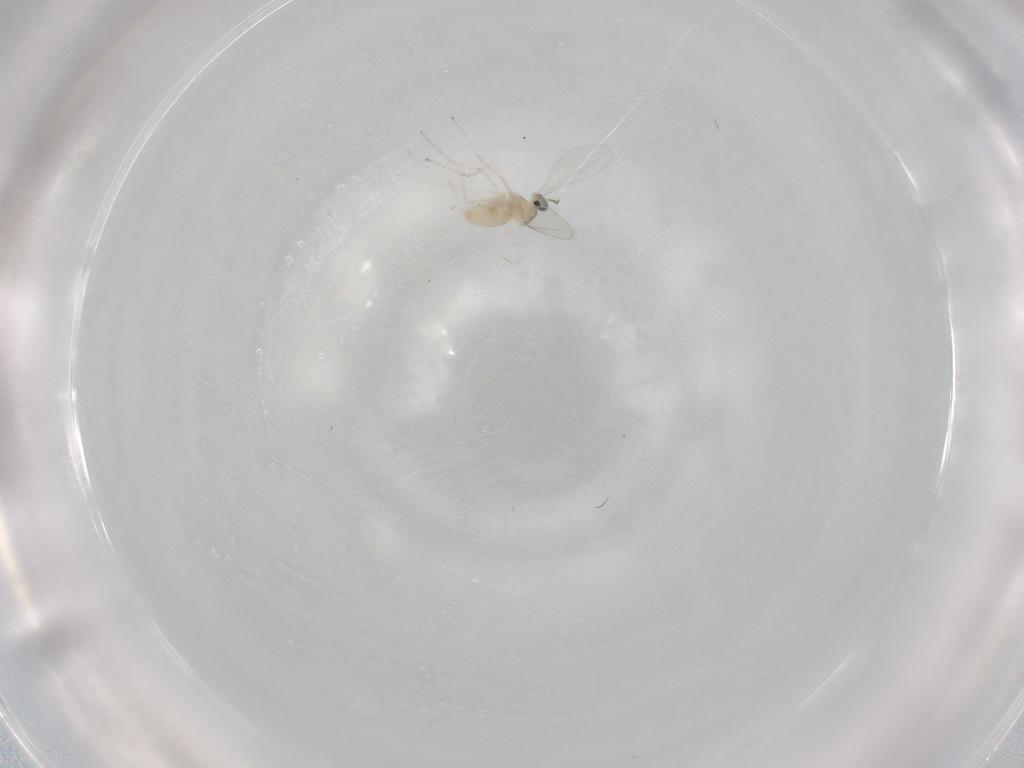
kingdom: Animalia
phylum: Arthropoda
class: Insecta
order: Diptera
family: Cecidomyiidae
